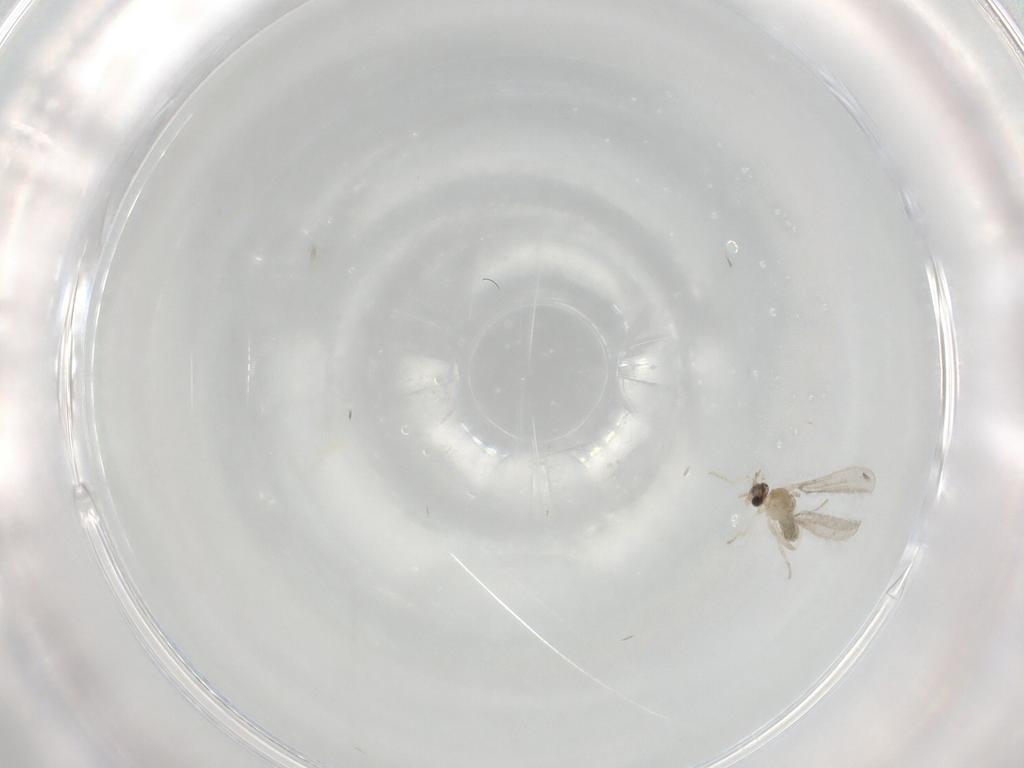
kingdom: Animalia
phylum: Arthropoda
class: Insecta
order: Diptera
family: Cecidomyiidae
